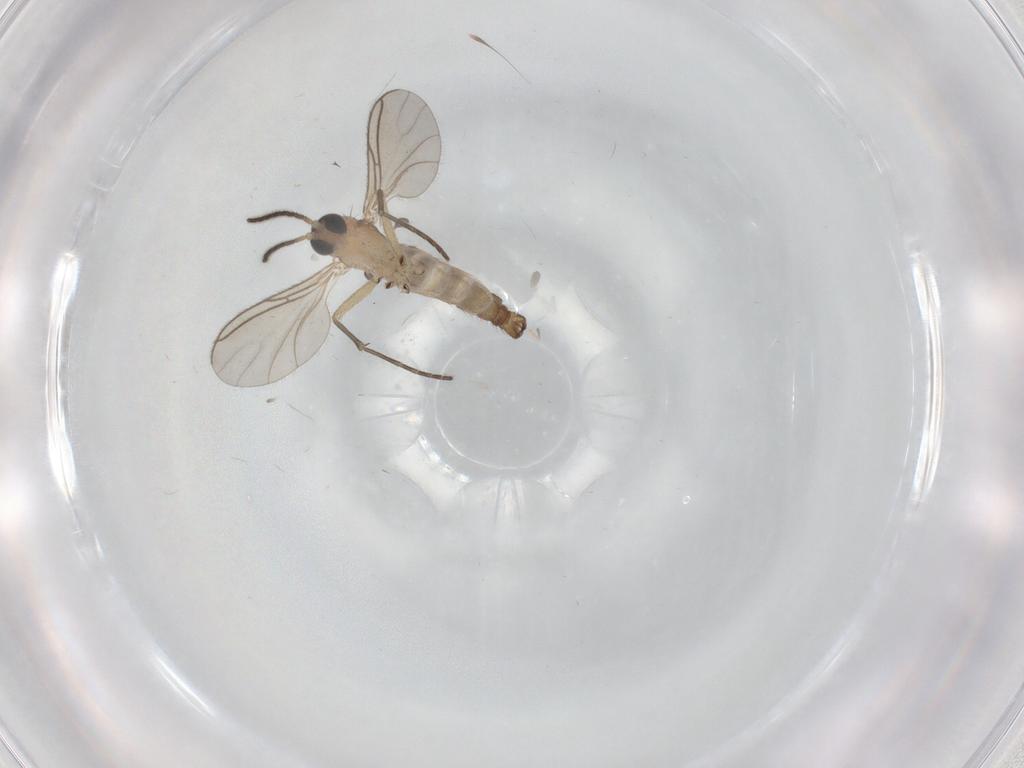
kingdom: Animalia
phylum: Arthropoda
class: Insecta
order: Diptera
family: Sciaridae
